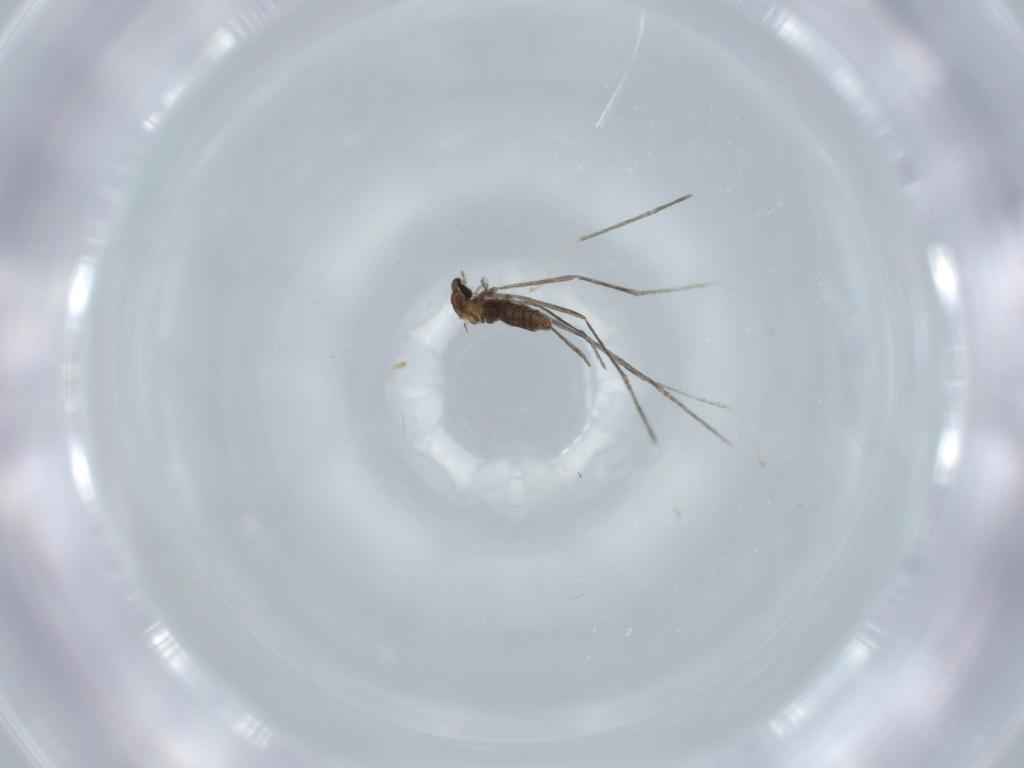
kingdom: Animalia
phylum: Arthropoda
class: Insecta
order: Diptera
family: Cecidomyiidae
